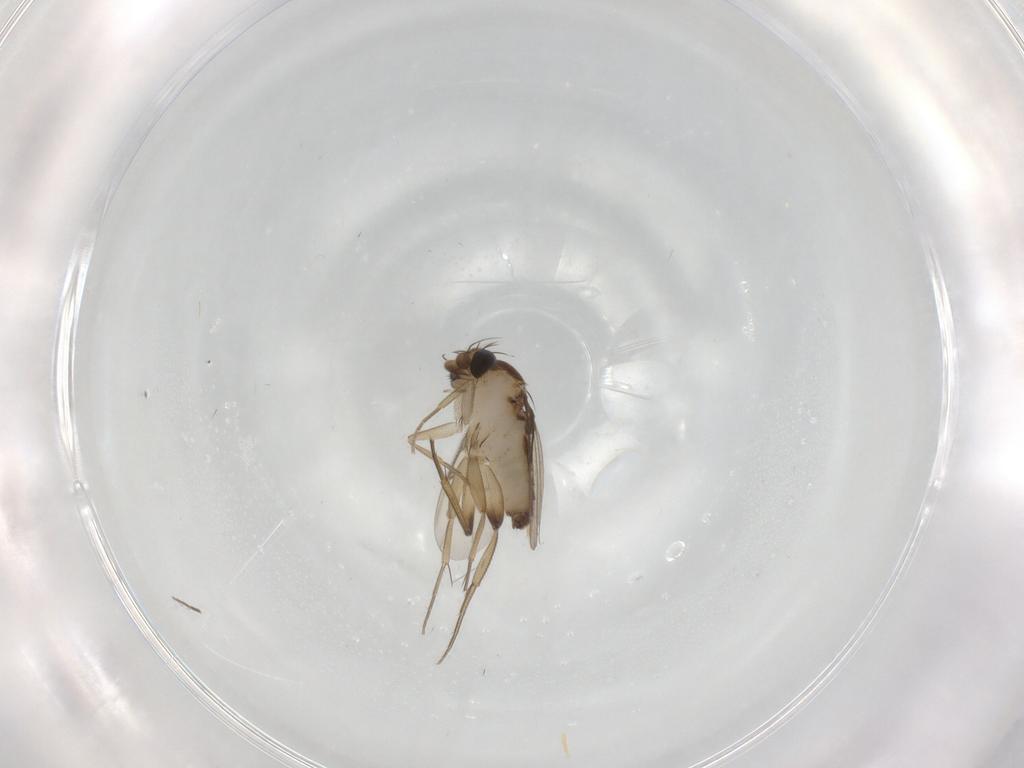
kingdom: Animalia
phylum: Arthropoda
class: Insecta
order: Diptera
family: Phoridae
